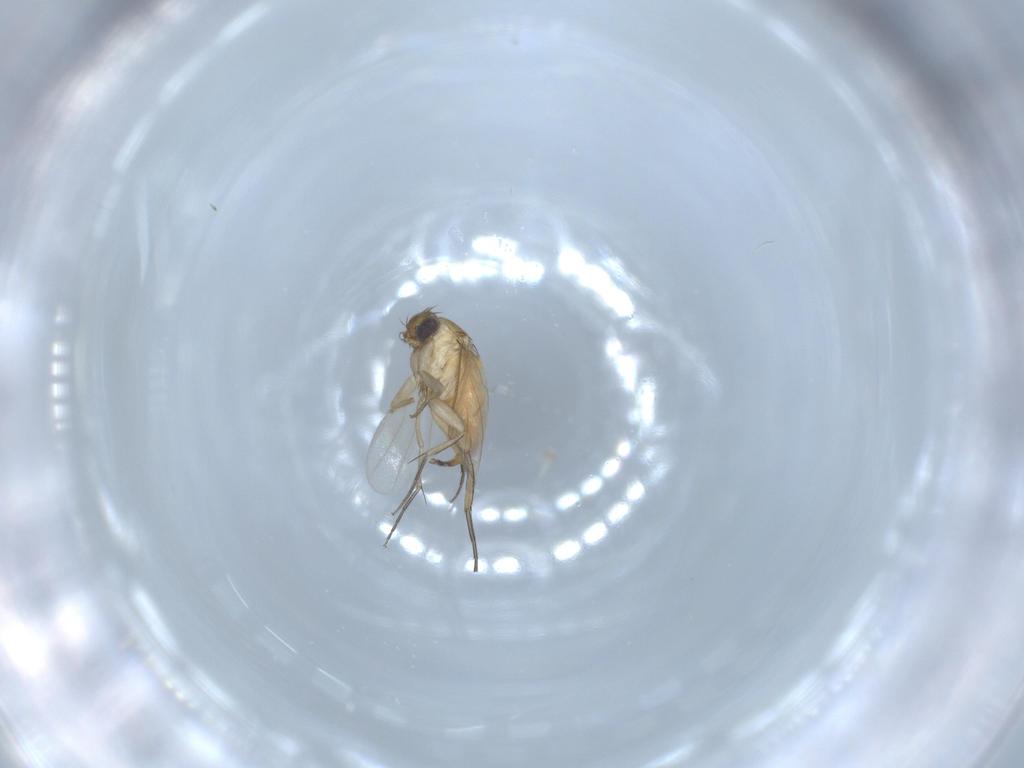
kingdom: Animalia
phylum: Arthropoda
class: Insecta
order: Diptera
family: Phoridae
